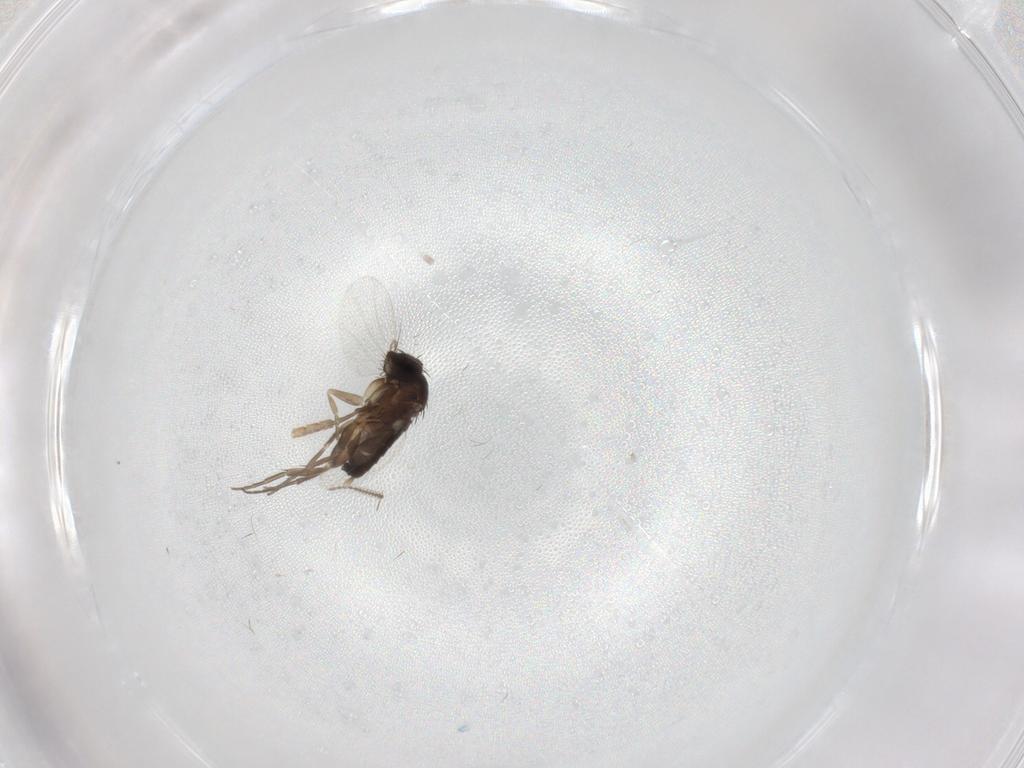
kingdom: Animalia
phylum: Arthropoda
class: Insecta
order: Diptera
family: Phoridae
